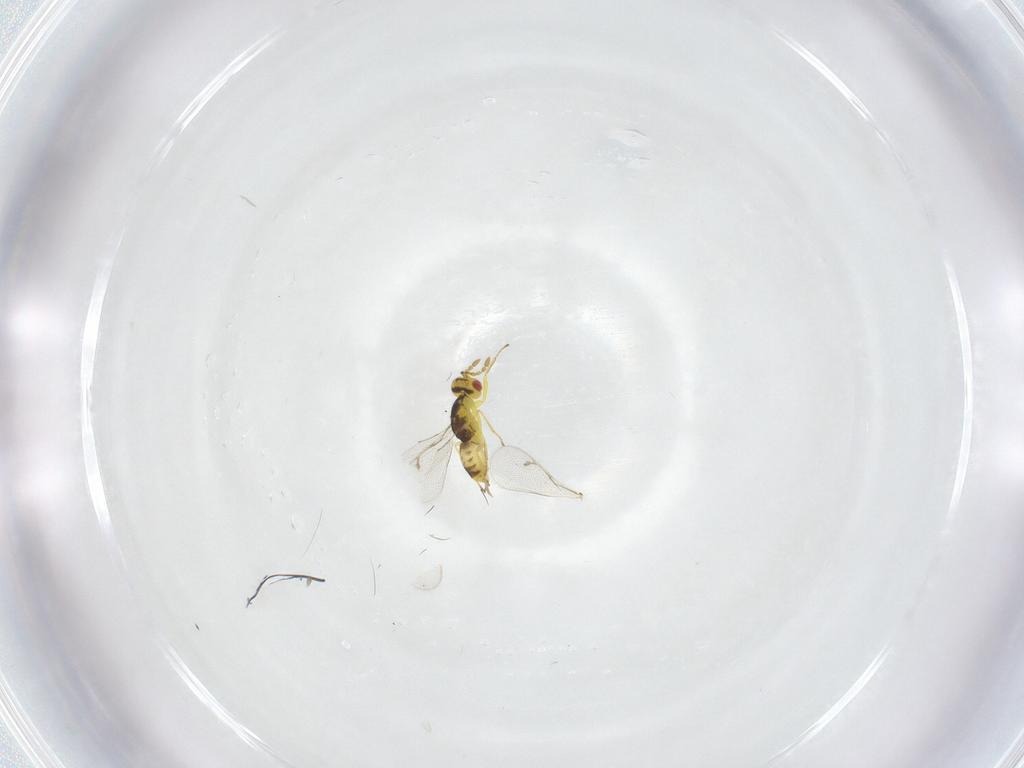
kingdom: Animalia
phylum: Arthropoda
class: Insecta
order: Hymenoptera
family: Eulophidae
